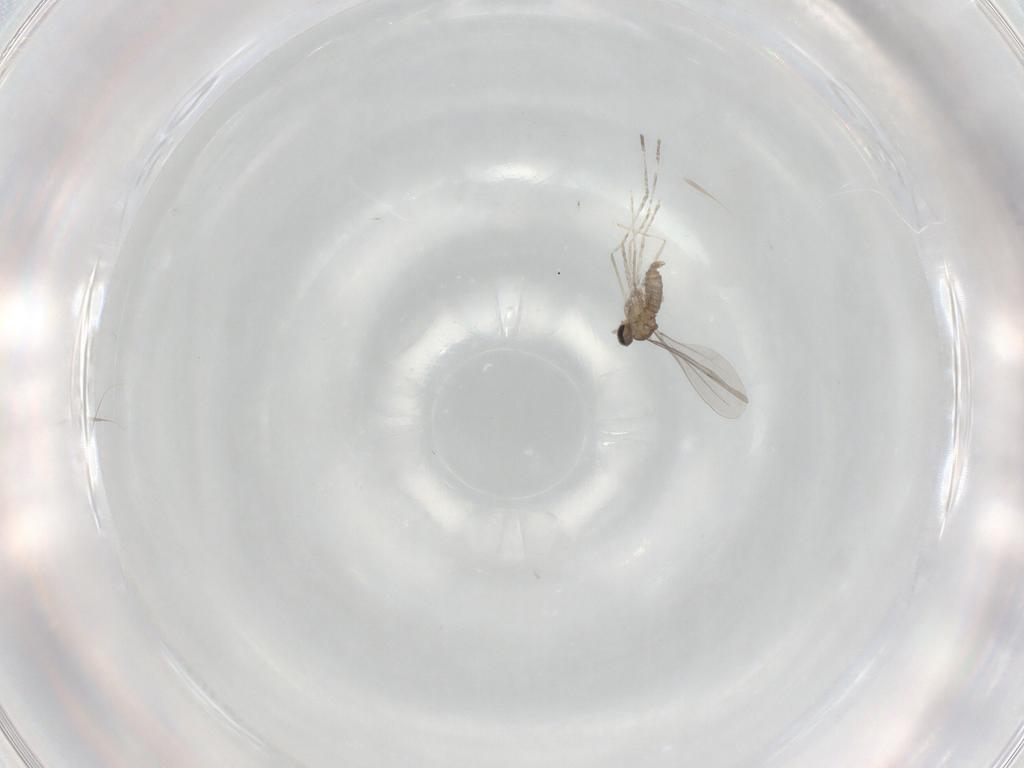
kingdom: Animalia
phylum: Arthropoda
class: Insecta
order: Diptera
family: Cecidomyiidae
